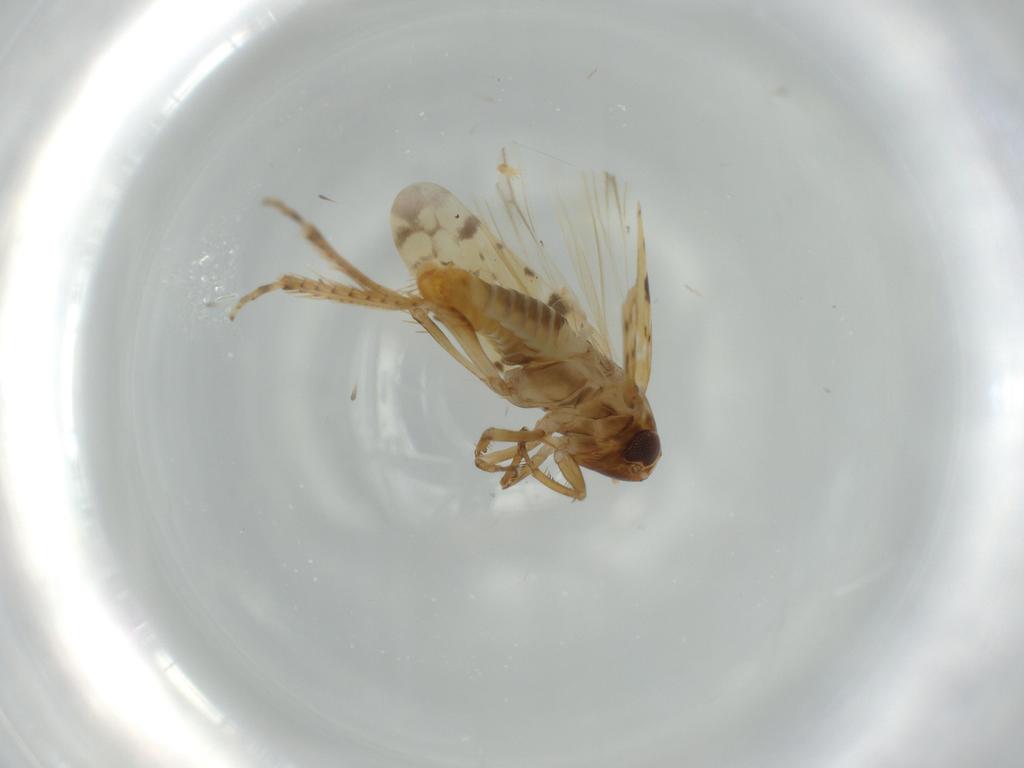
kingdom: Animalia
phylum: Arthropoda
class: Insecta
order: Hemiptera
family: Cicadellidae
